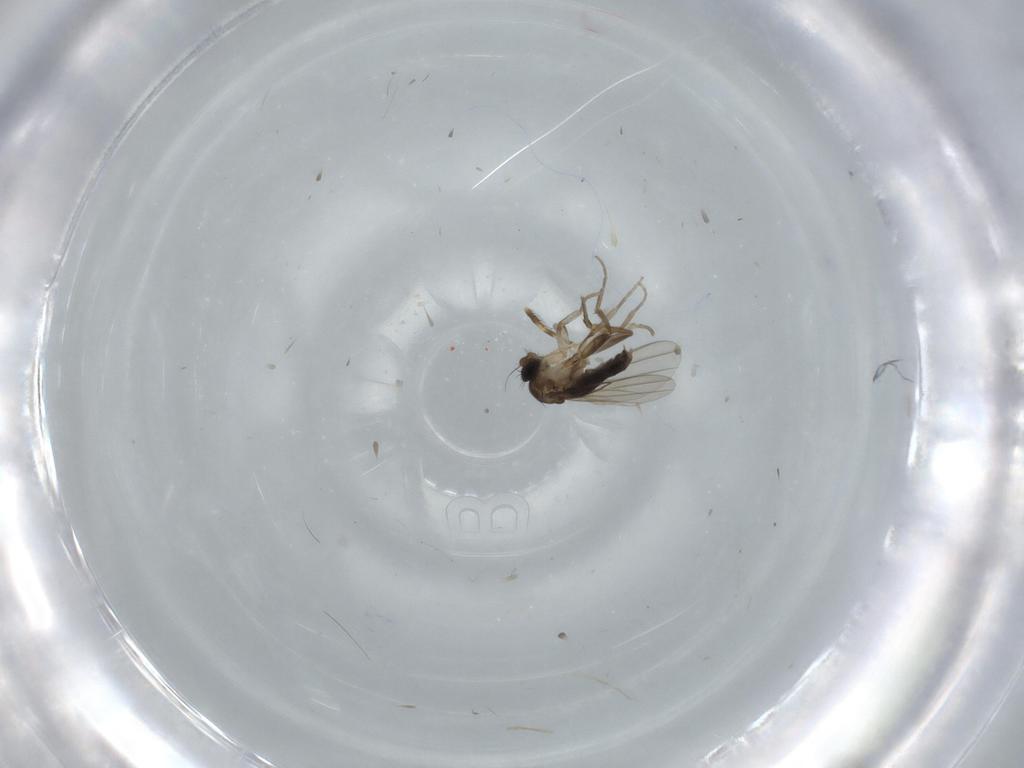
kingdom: Animalia
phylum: Arthropoda
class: Insecta
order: Diptera
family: Phoridae
